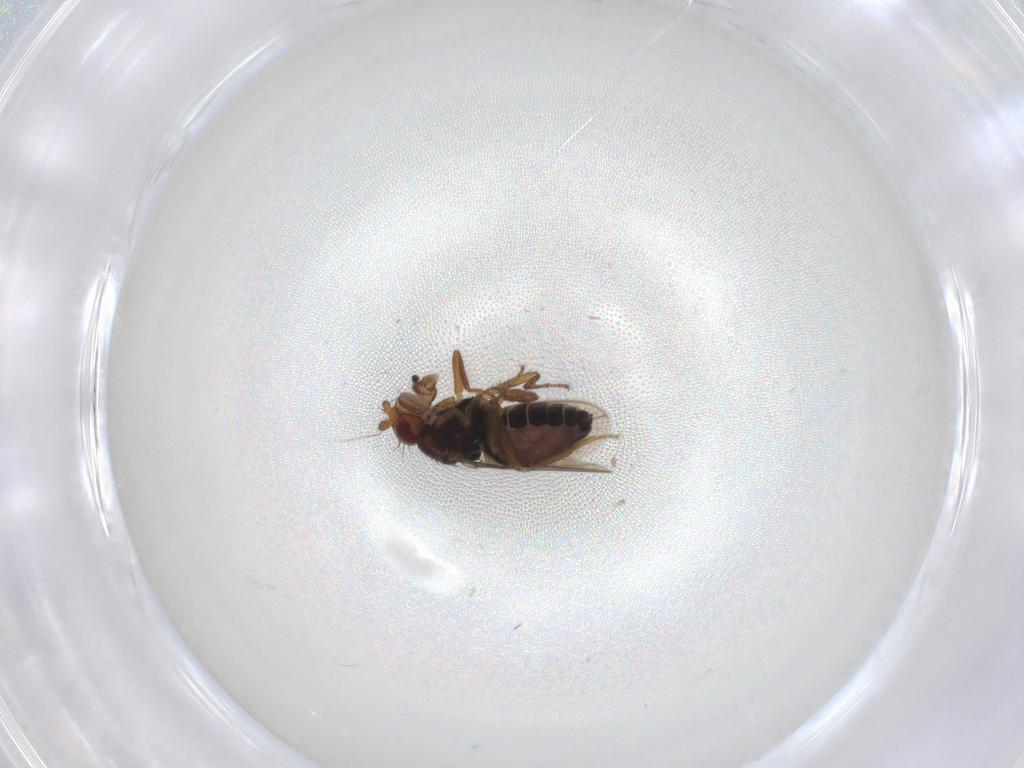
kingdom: Animalia
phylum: Arthropoda
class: Insecta
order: Diptera
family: Sphaeroceridae
